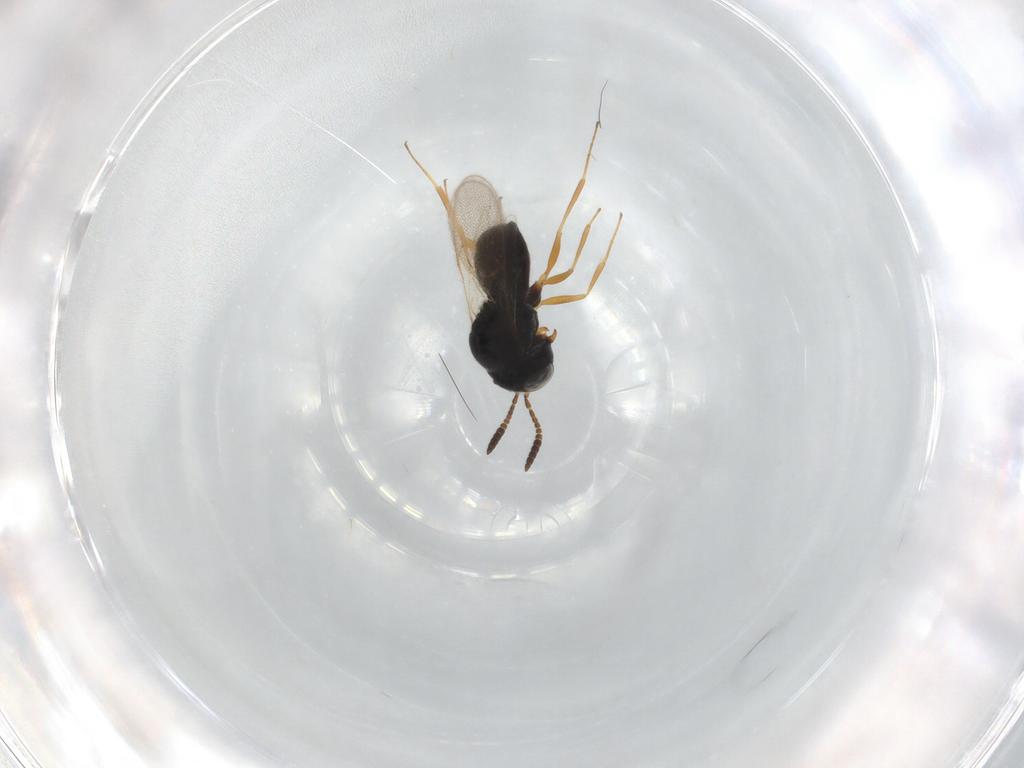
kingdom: Animalia
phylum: Arthropoda
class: Insecta
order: Hymenoptera
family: Scelionidae
